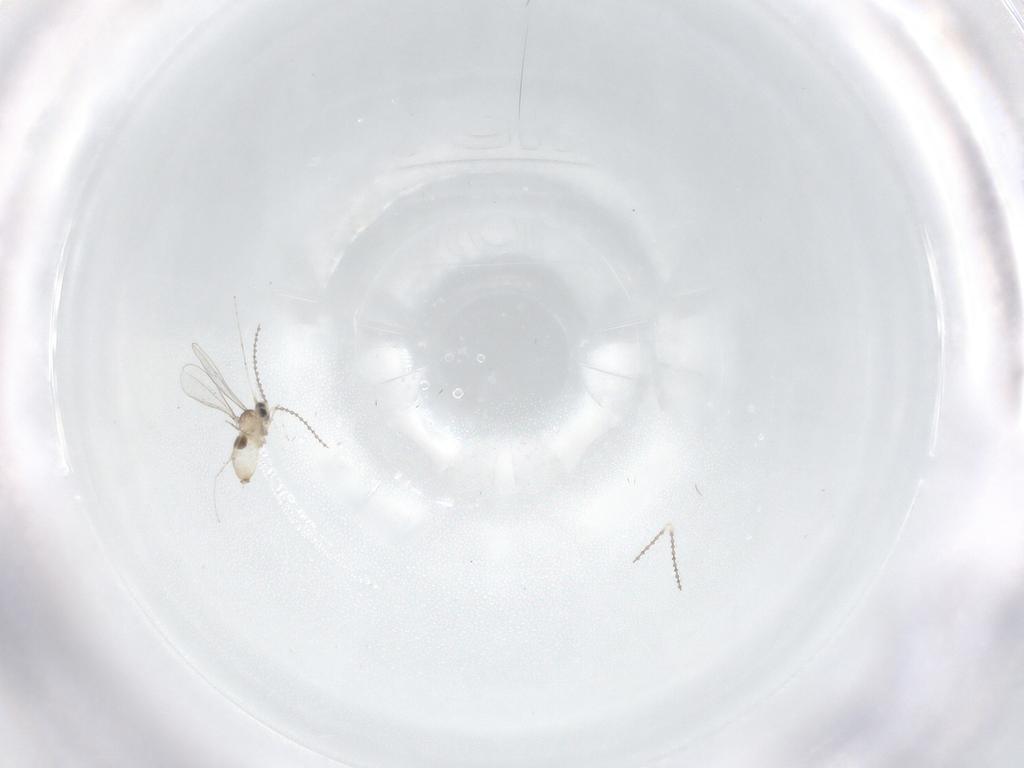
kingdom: Animalia
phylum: Arthropoda
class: Insecta
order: Diptera
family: Cecidomyiidae
